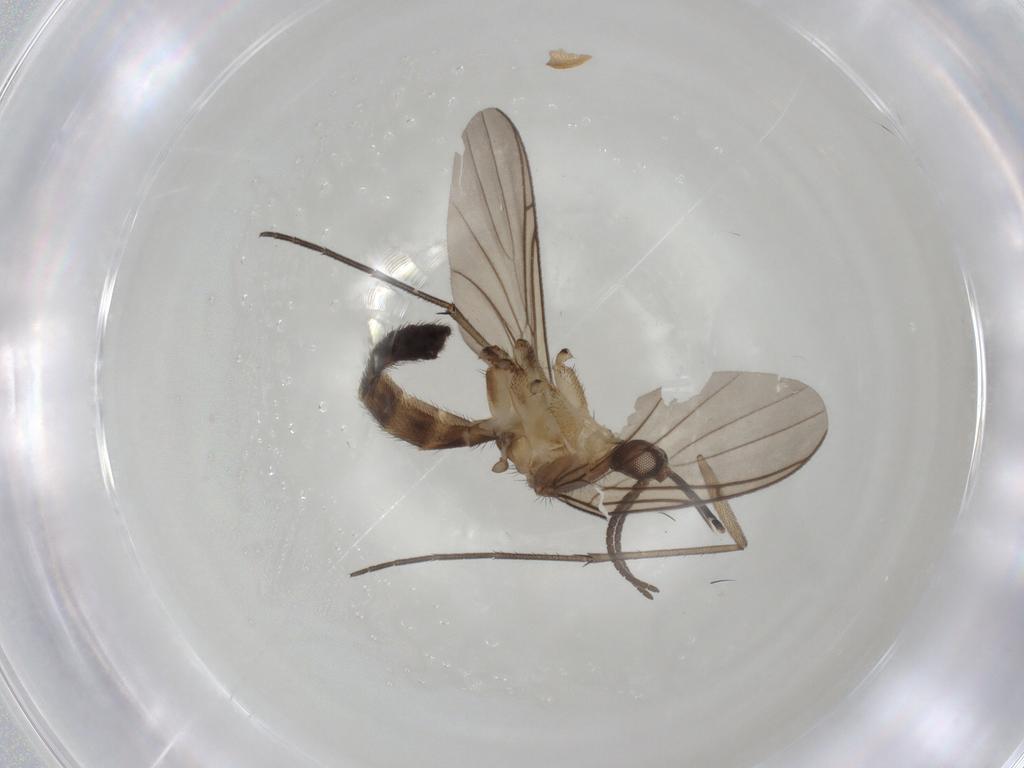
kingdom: Animalia
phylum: Arthropoda
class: Insecta
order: Diptera
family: Keroplatidae
